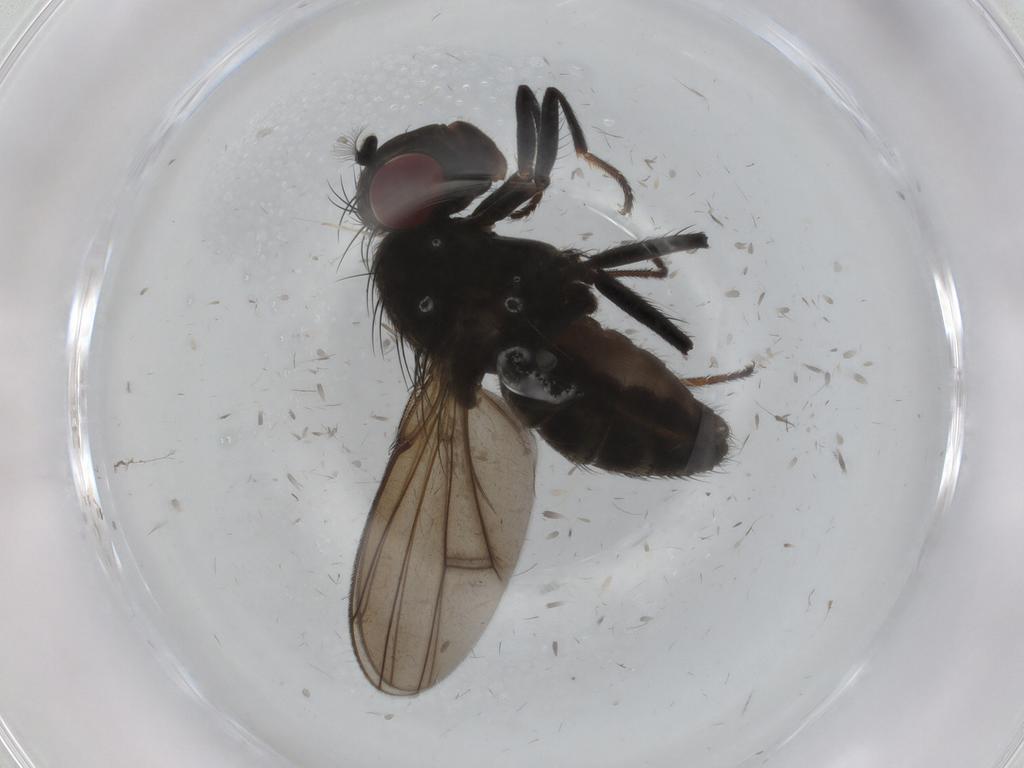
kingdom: Animalia
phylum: Arthropoda
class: Insecta
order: Diptera
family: Ephydridae
